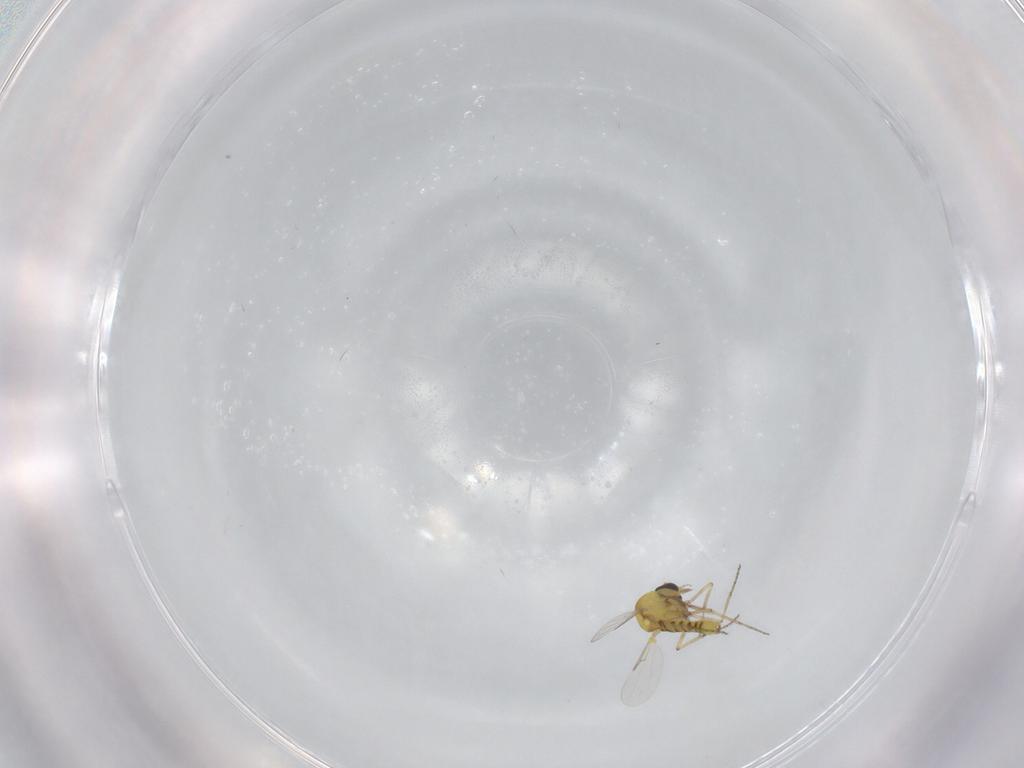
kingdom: Animalia
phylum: Arthropoda
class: Insecta
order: Diptera
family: Ceratopogonidae
